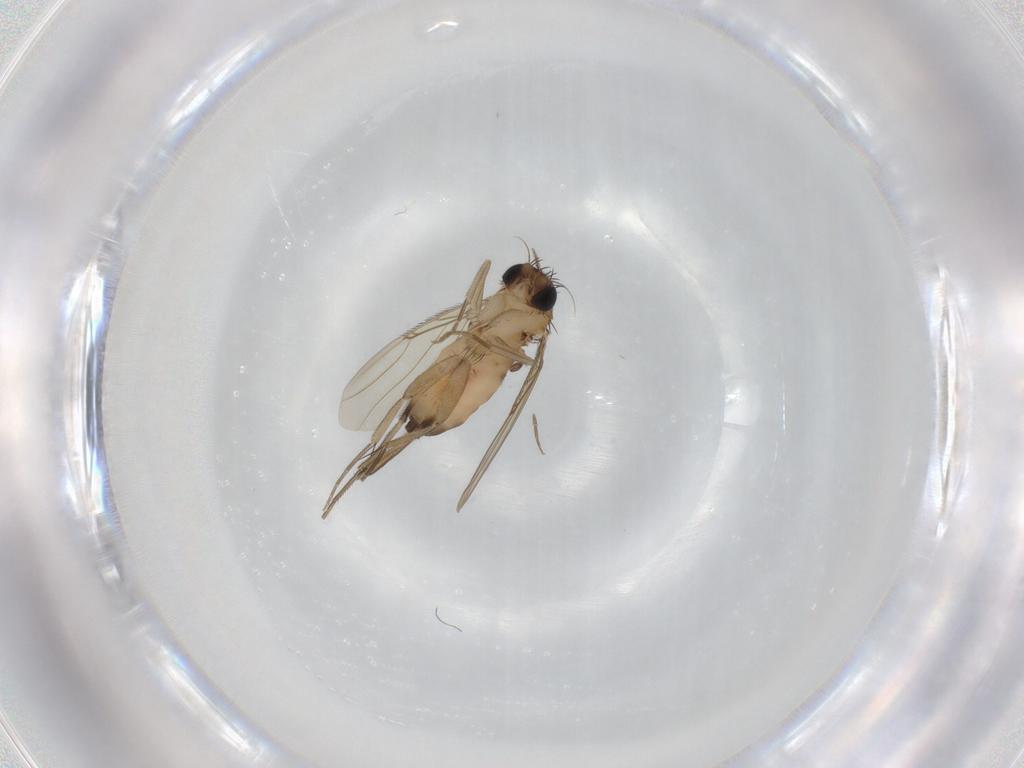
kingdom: Animalia
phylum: Arthropoda
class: Insecta
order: Diptera
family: Phoridae
